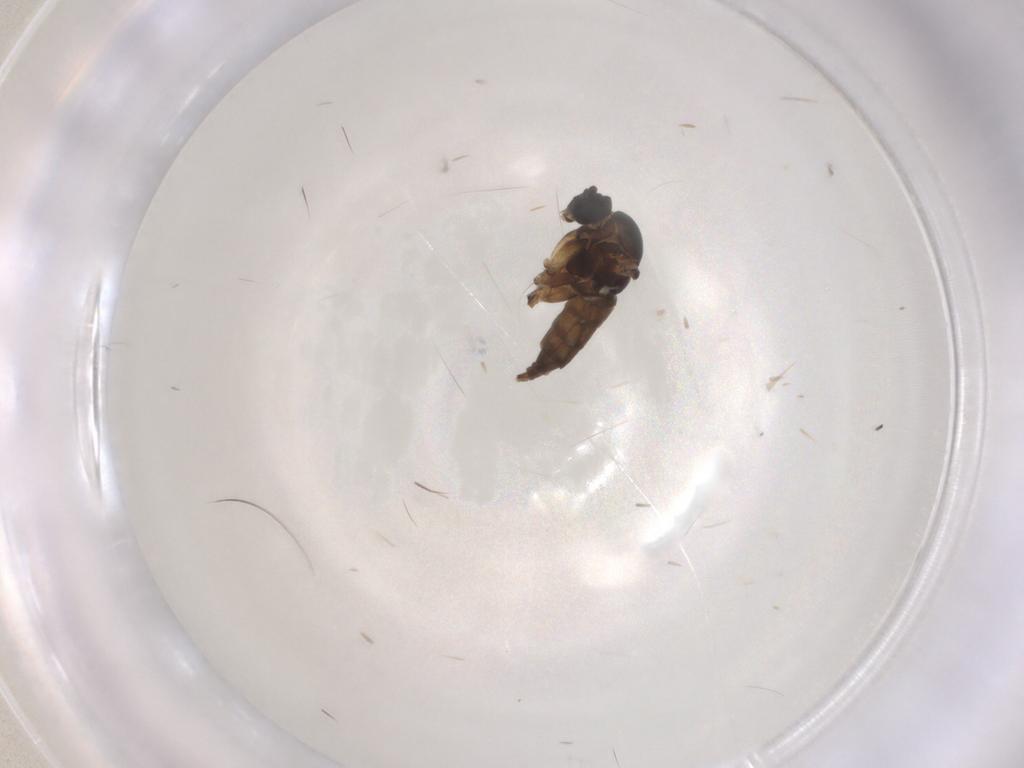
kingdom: Animalia
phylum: Arthropoda
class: Insecta
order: Diptera
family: Sciaridae
